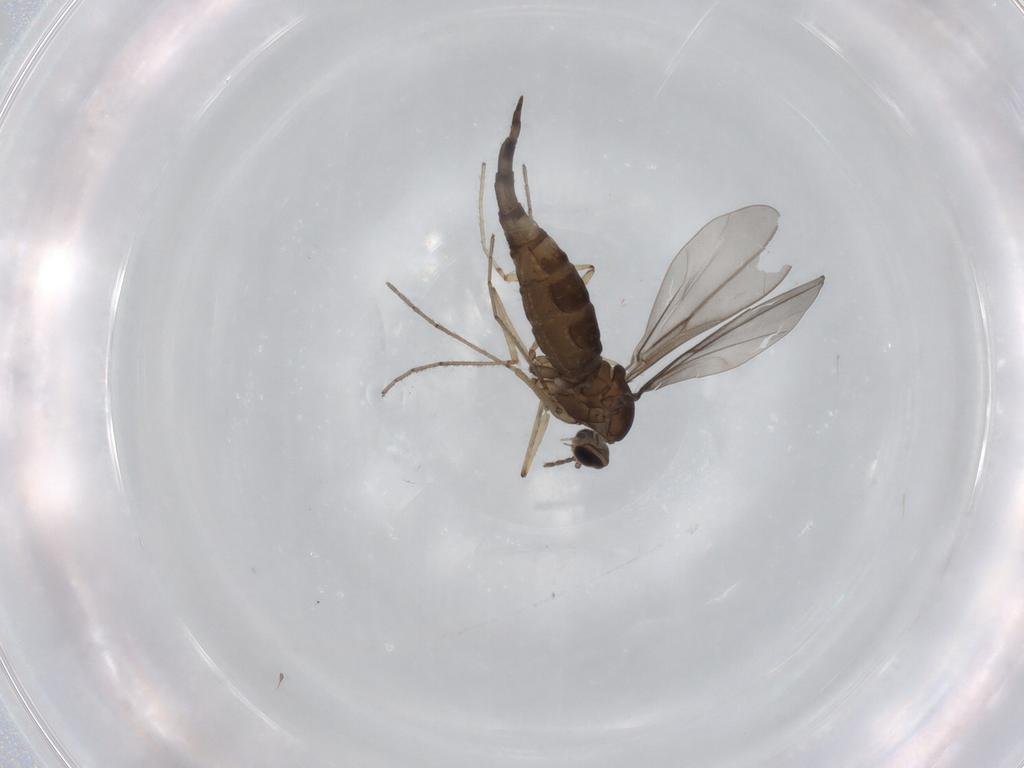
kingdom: Animalia
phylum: Arthropoda
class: Insecta
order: Diptera
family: Cecidomyiidae
